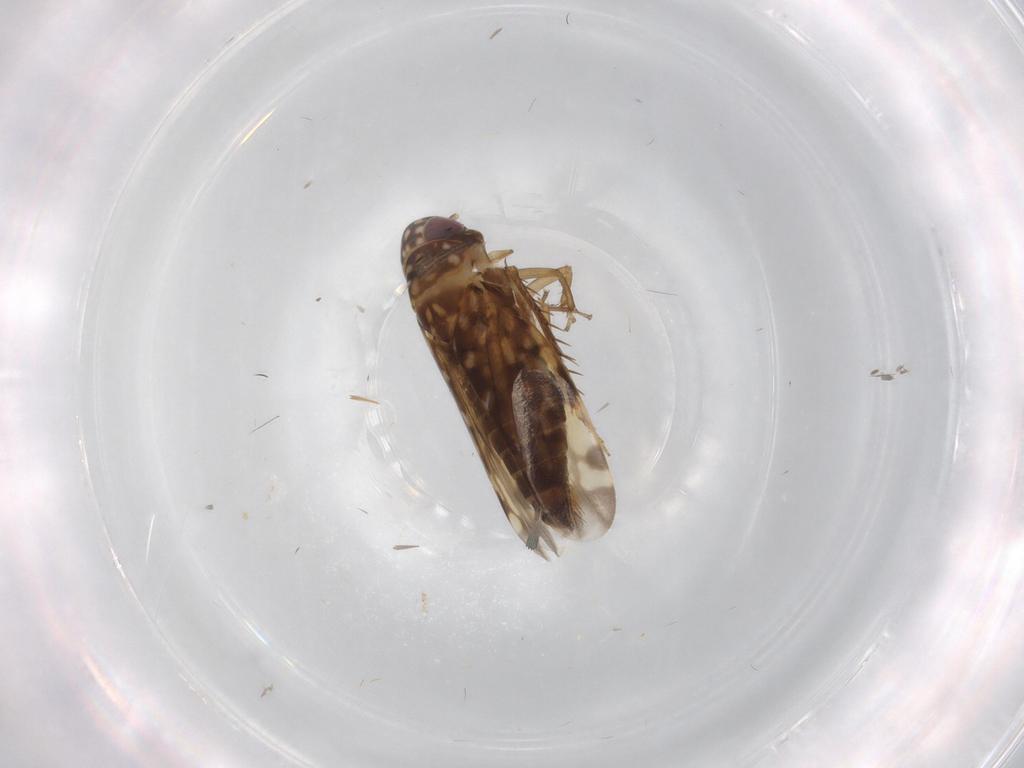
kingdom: Animalia
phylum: Arthropoda
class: Insecta
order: Hemiptera
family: Cicadellidae
